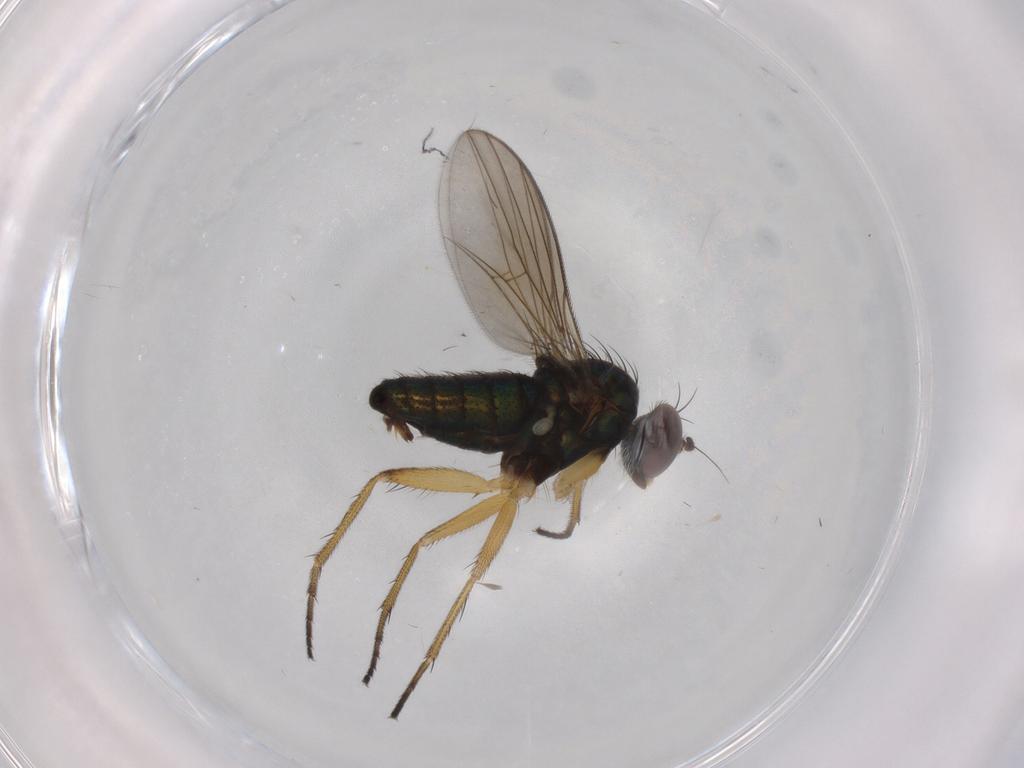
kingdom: Animalia
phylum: Arthropoda
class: Insecta
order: Diptera
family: Dolichopodidae
